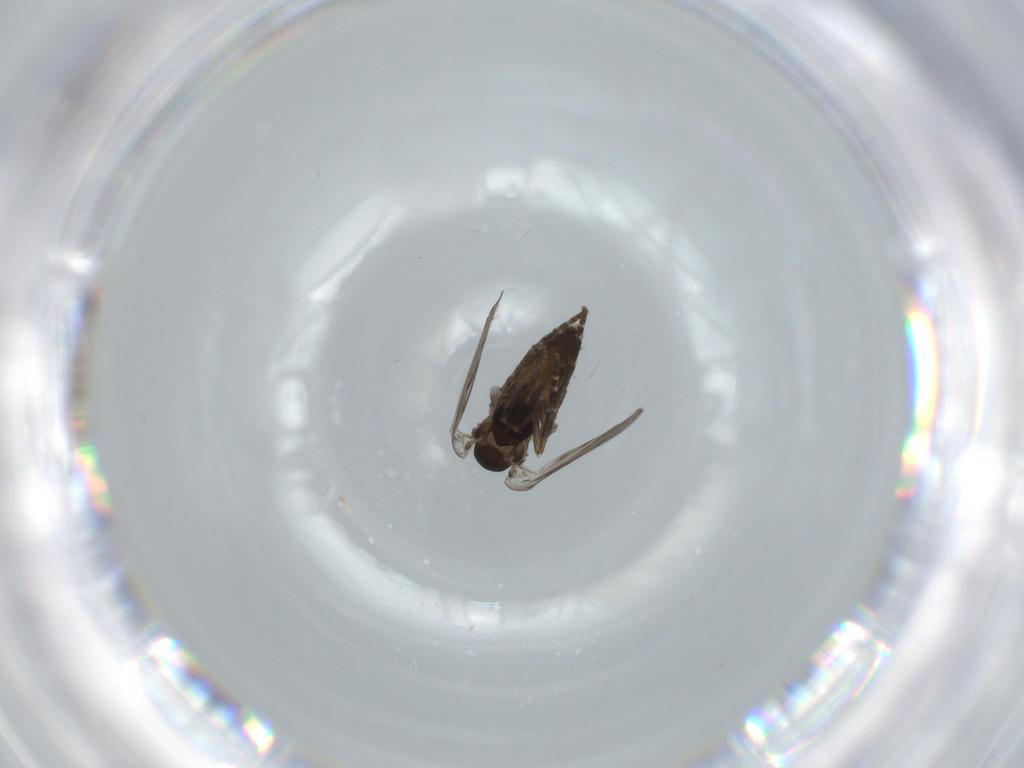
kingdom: Animalia
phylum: Arthropoda
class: Insecta
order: Diptera
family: Psychodidae
